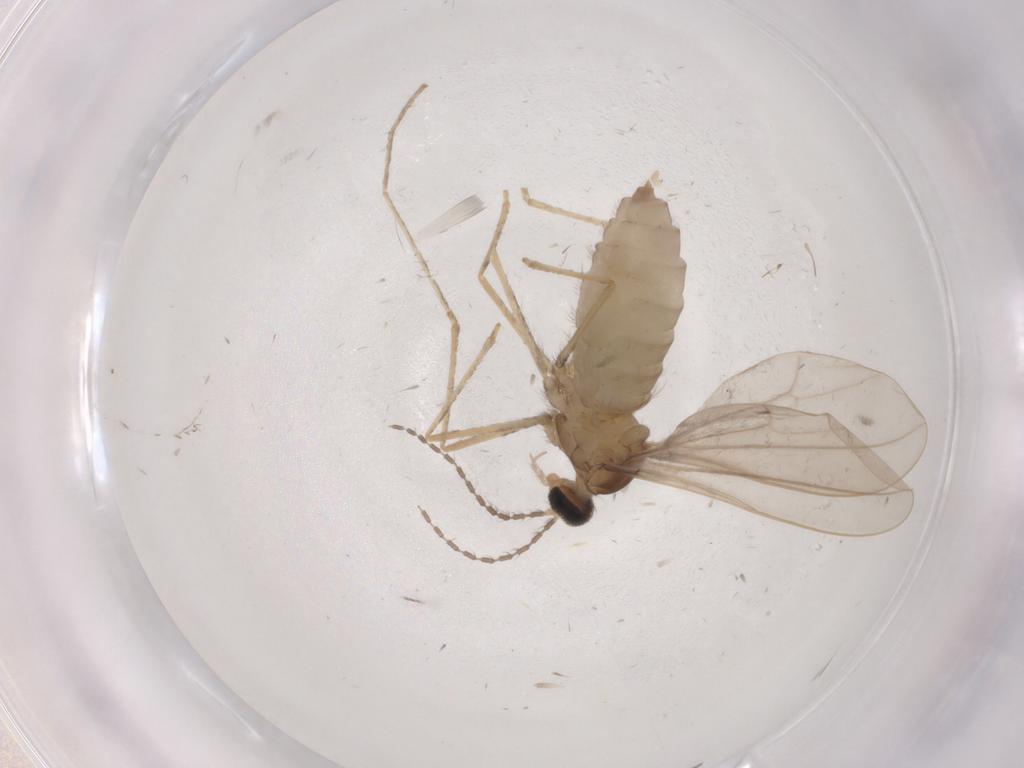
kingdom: Animalia
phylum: Arthropoda
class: Insecta
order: Diptera
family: Cecidomyiidae
